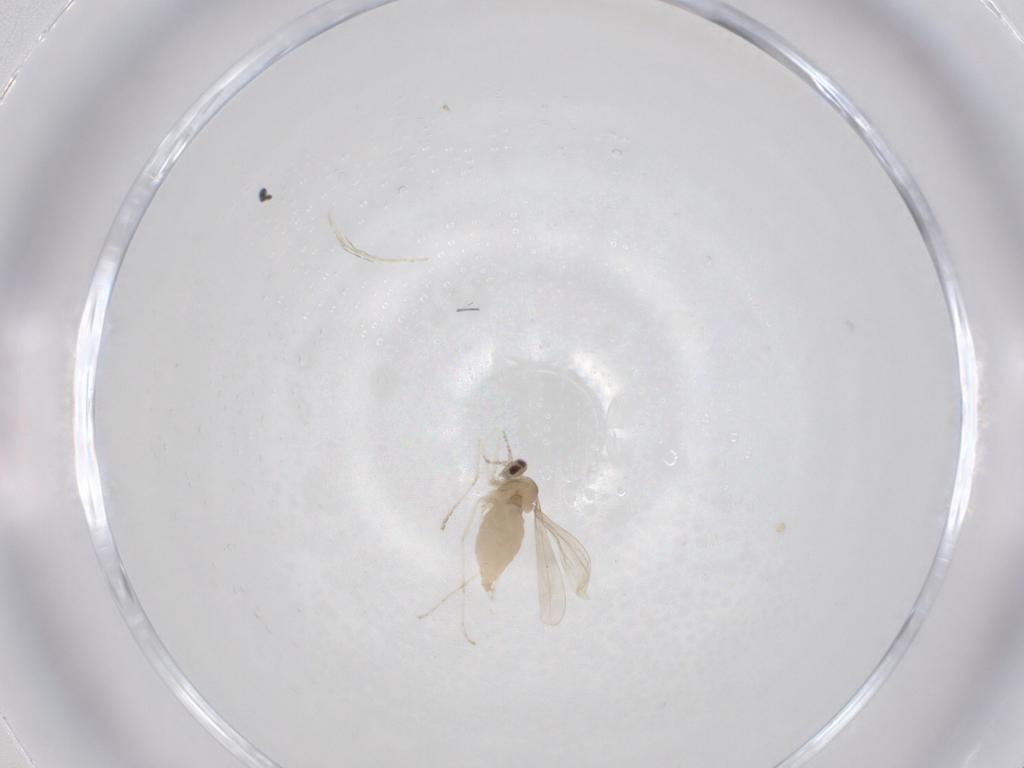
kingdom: Animalia
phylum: Arthropoda
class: Insecta
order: Diptera
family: Cecidomyiidae
